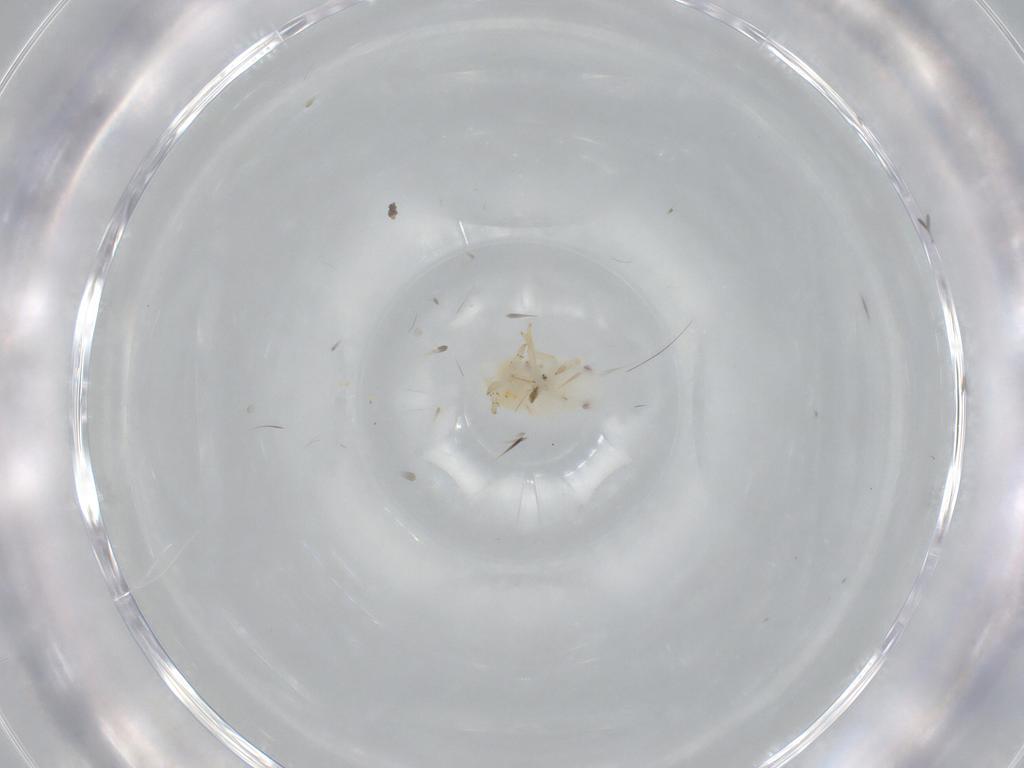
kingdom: Animalia
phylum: Arthropoda
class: Insecta
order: Hemiptera
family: Flatidae
